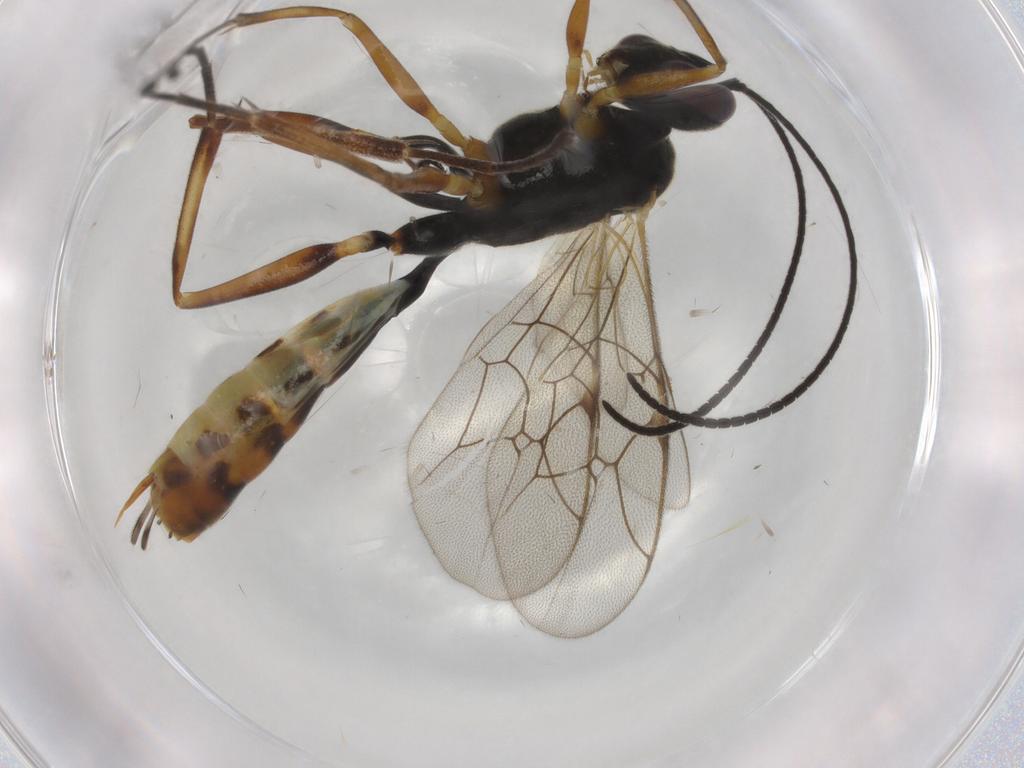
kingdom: Animalia
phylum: Arthropoda
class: Insecta
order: Hymenoptera
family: Ichneumonidae
